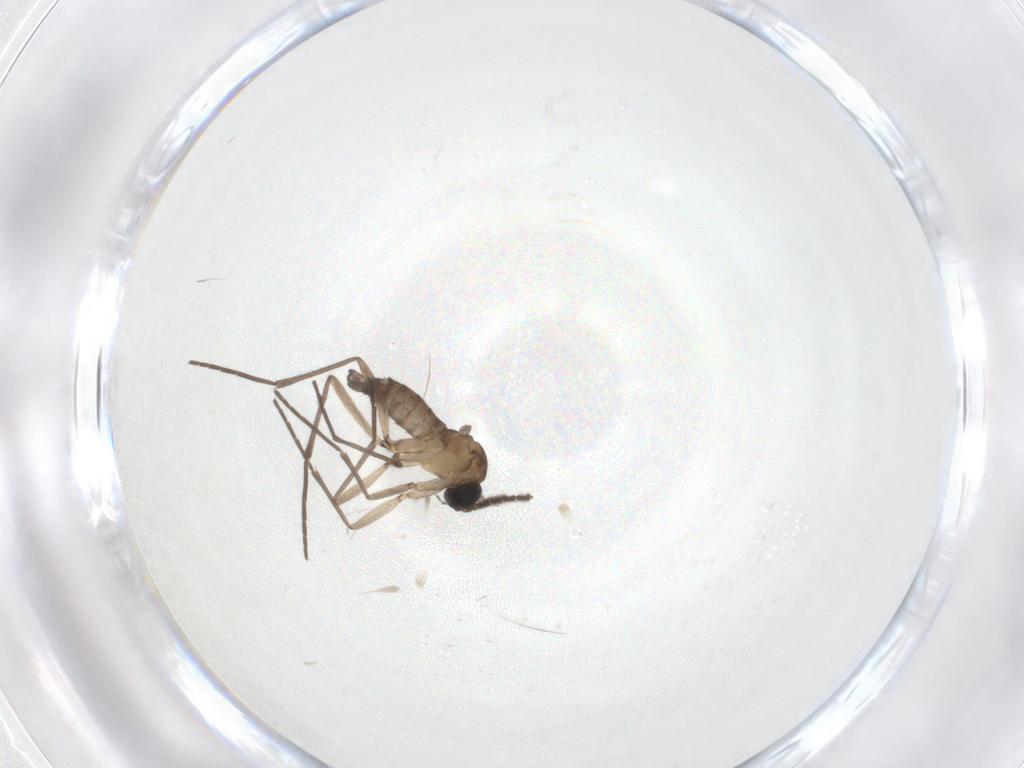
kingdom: Animalia
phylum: Arthropoda
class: Insecta
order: Diptera
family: Sciaridae
